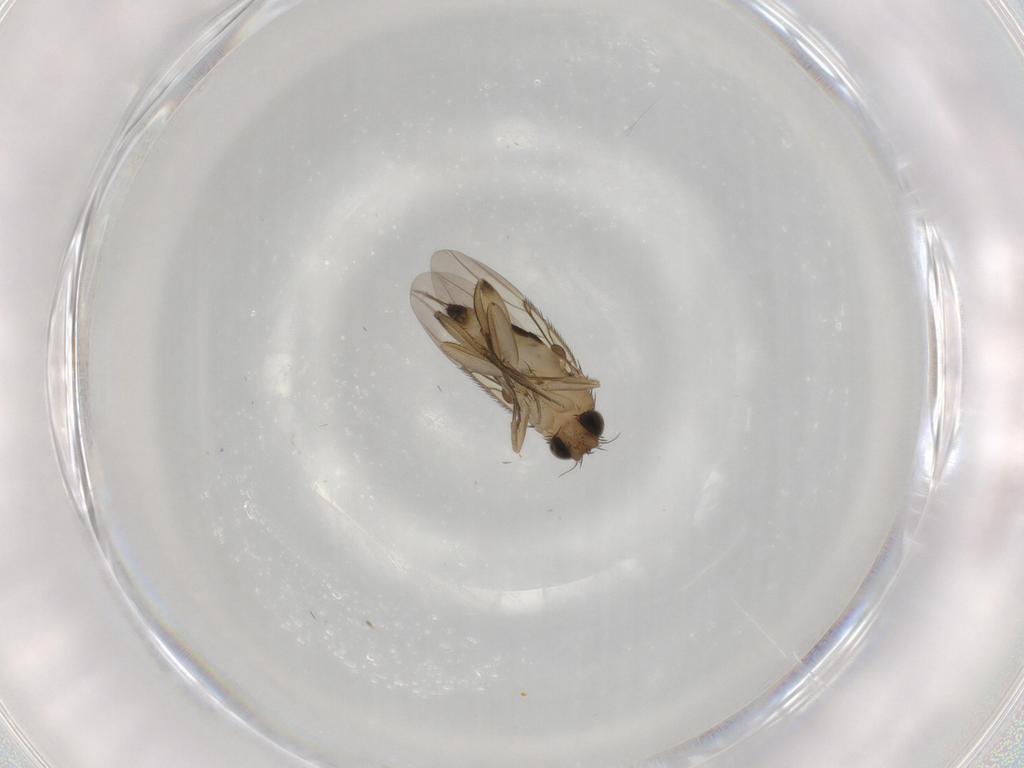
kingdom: Animalia
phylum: Arthropoda
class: Insecta
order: Diptera
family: Phoridae
